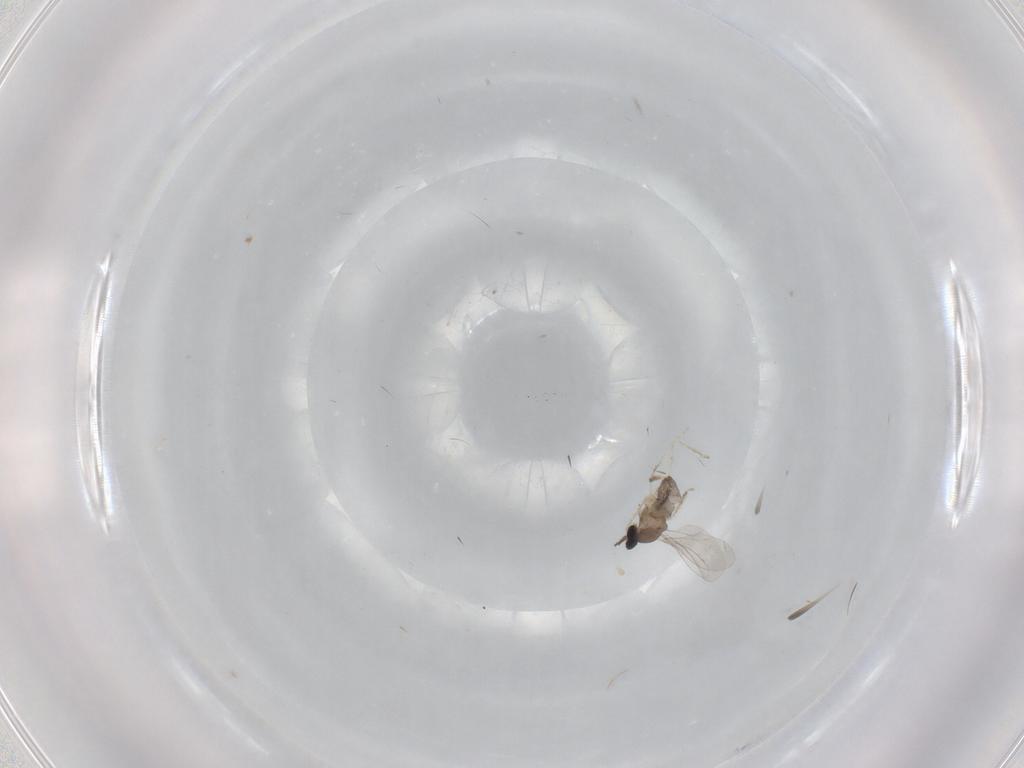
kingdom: Animalia
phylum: Arthropoda
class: Insecta
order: Diptera
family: Cecidomyiidae
